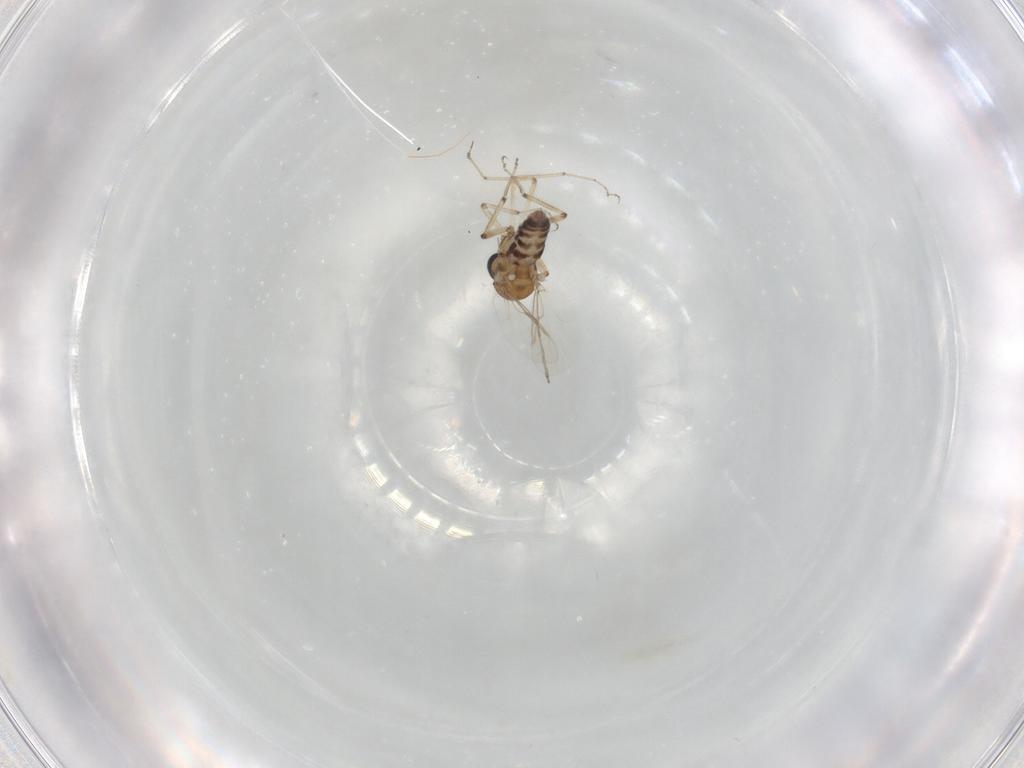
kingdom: Animalia
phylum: Arthropoda
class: Insecta
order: Diptera
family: Ceratopogonidae
